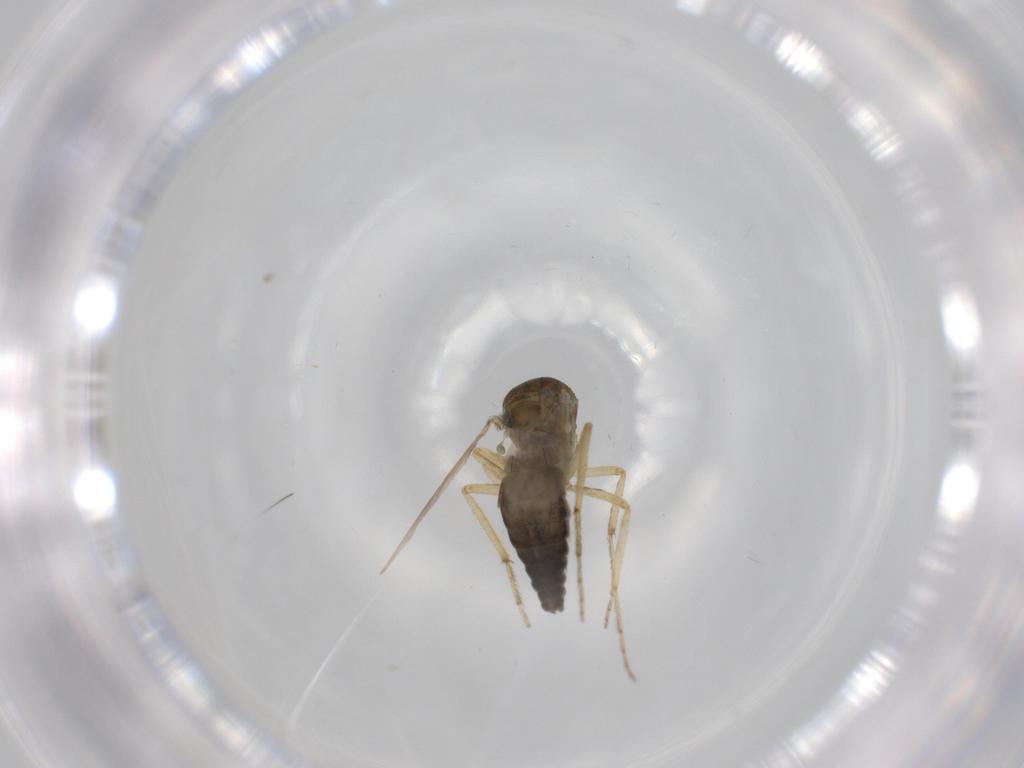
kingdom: Animalia
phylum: Arthropoda
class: Insecta
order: Diptera
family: Ceratopogonidae
